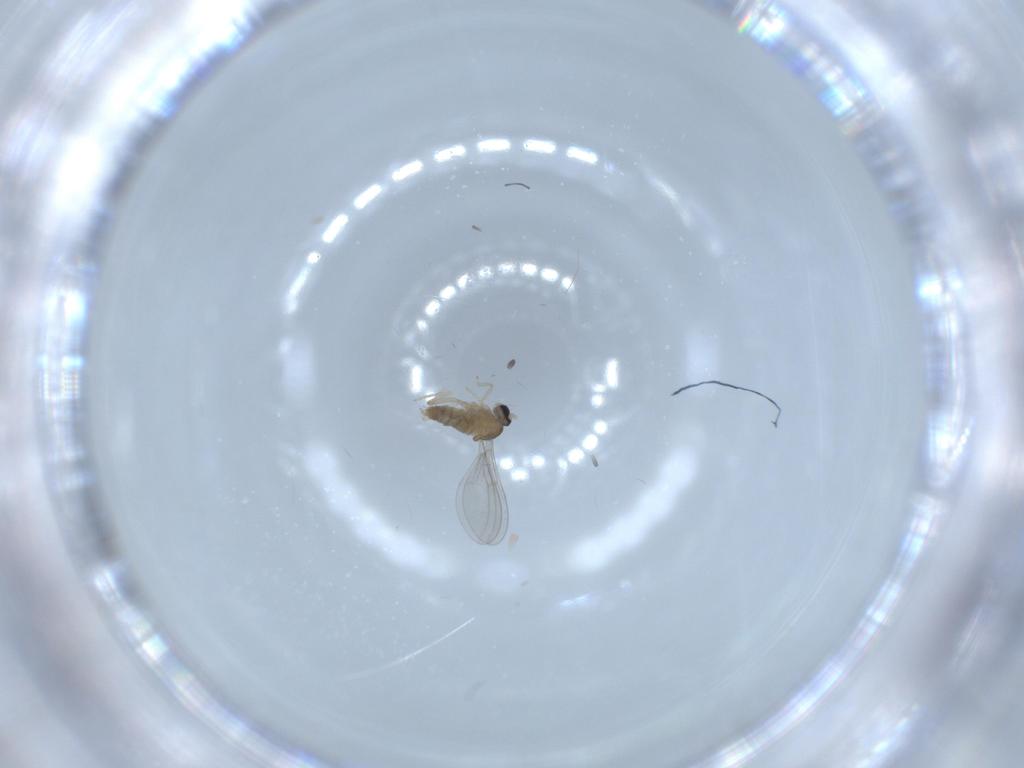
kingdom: Animalia
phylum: Arthropoda
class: Insecta
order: Diptera
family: Cecidomyiidae
